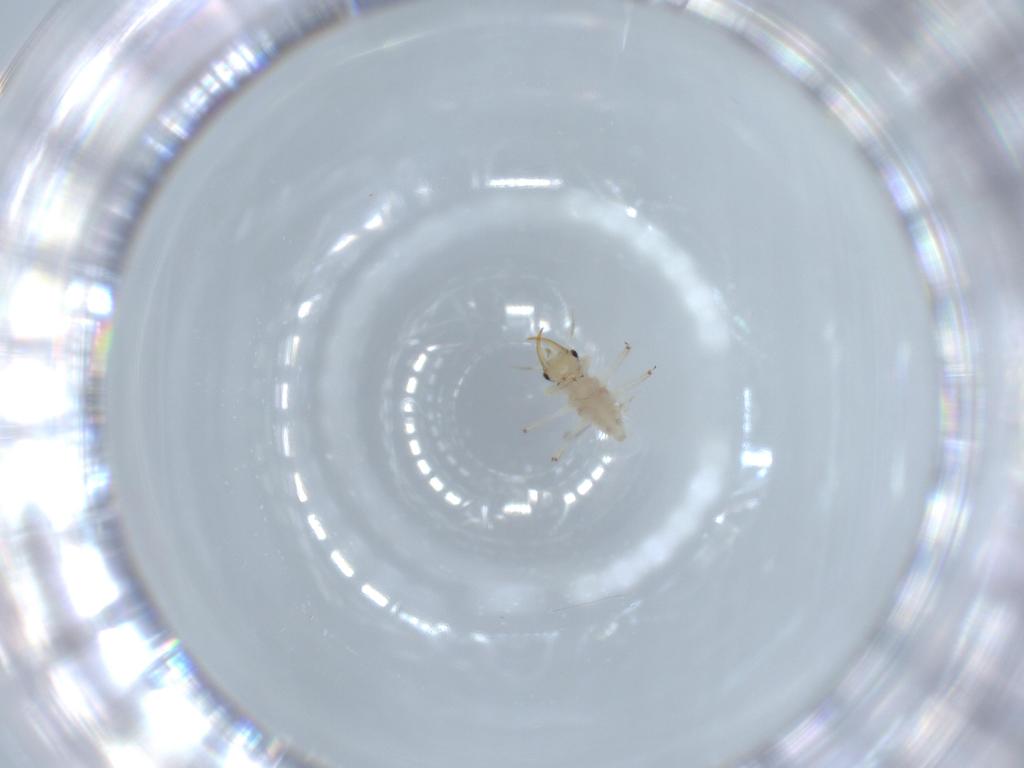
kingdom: Animalia
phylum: Arthropoda
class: Insecta
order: Neuroptera
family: Chrysopidae
